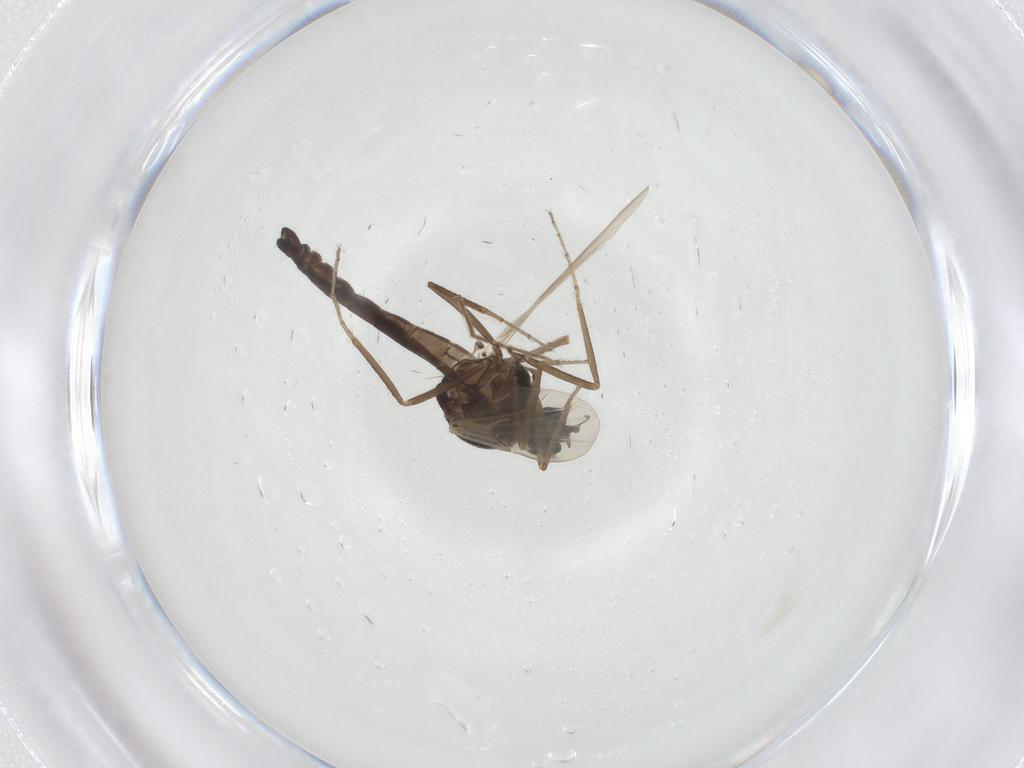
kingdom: Animalia
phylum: Arthropoda
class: Insecta
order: Diptera
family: Ceratopogonidae
